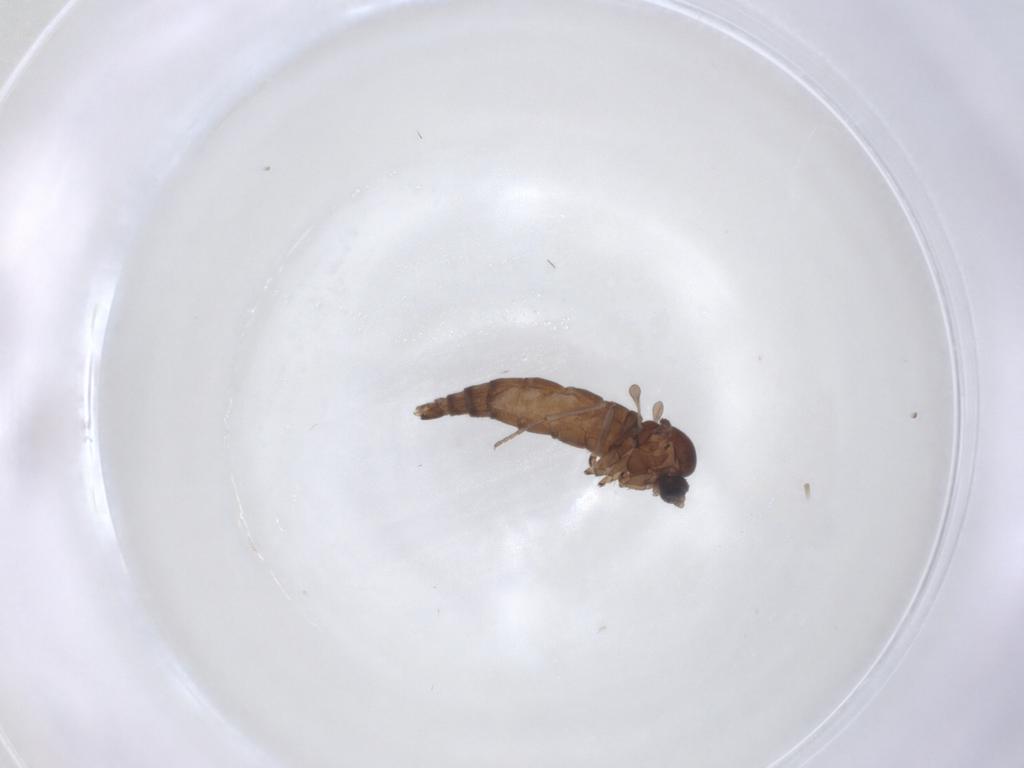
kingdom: Animalia
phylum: Arthropoda
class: Insecta
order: Diptera
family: Sciaridae
